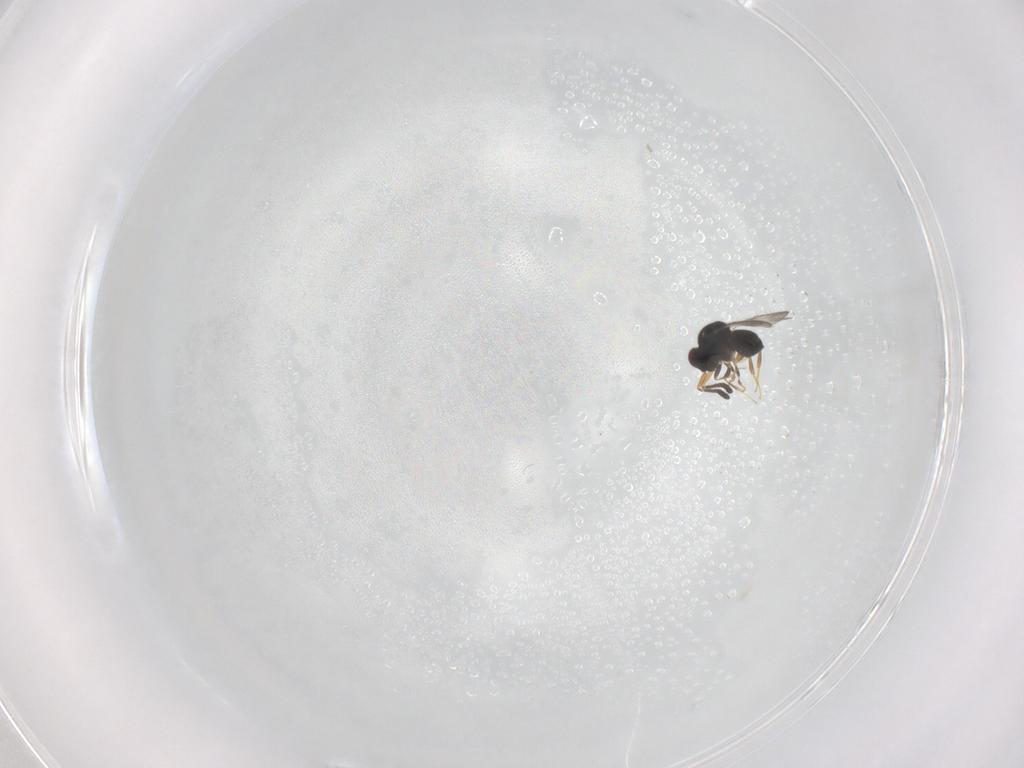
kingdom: Animalia
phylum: Arthropoda
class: Insecta
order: Hymenoptera
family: Ceraphronidae
